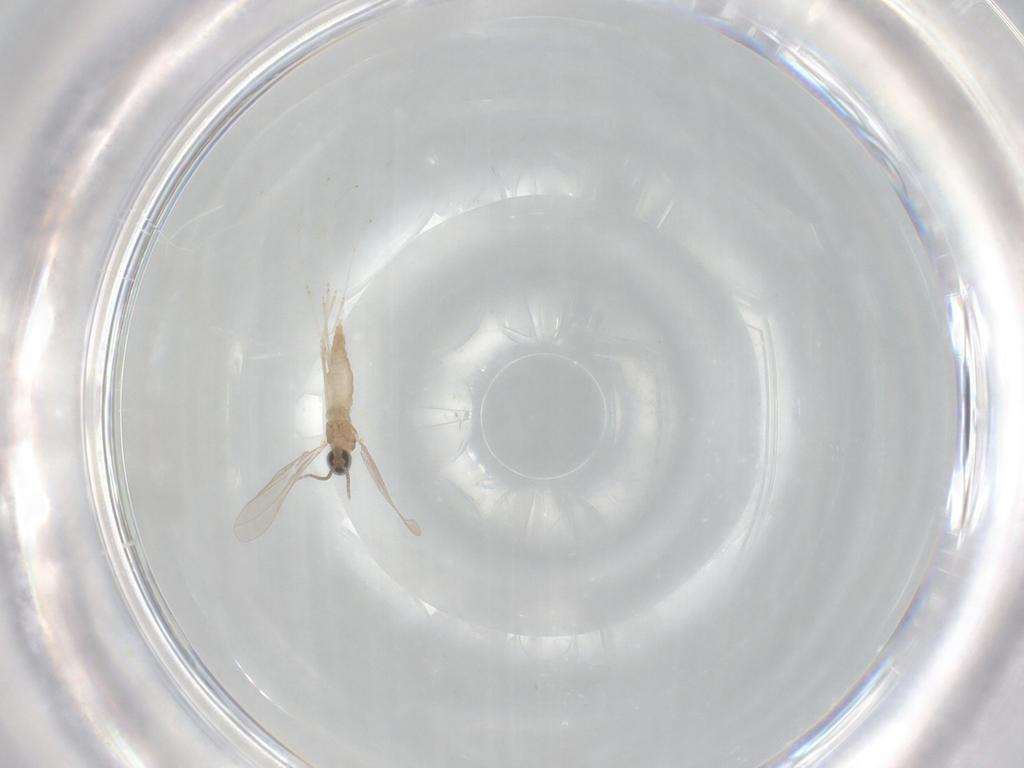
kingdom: Animalia
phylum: Arthropoda
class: Insecta
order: Diptera
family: Cecidomyiidae
